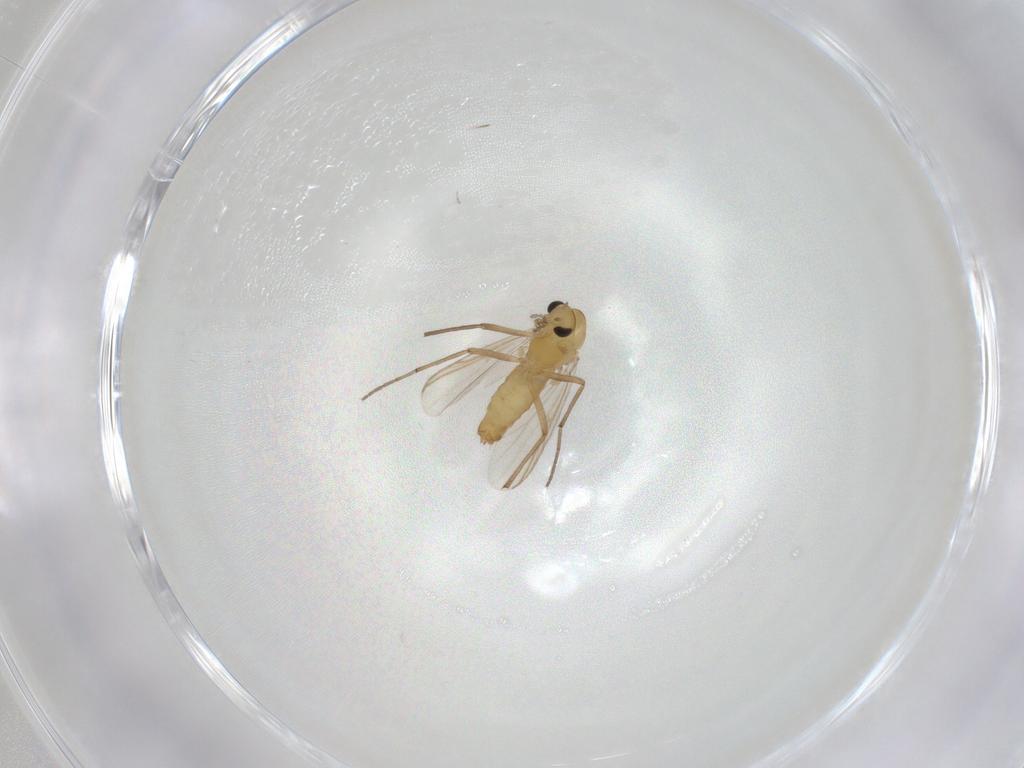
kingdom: Animalia
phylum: Arthropoda
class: Insecta
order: Diptera
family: Chironomidae
